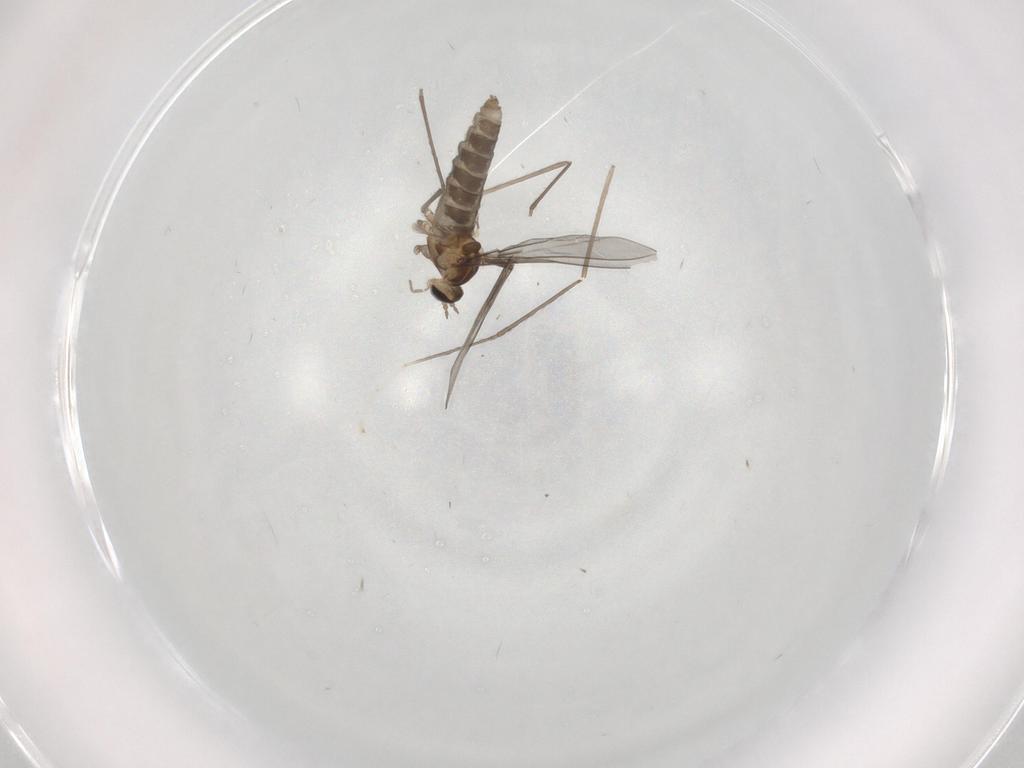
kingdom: Animalia
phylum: Arthropoda
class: Insecta
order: Diptera
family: Cecidomyiidae
